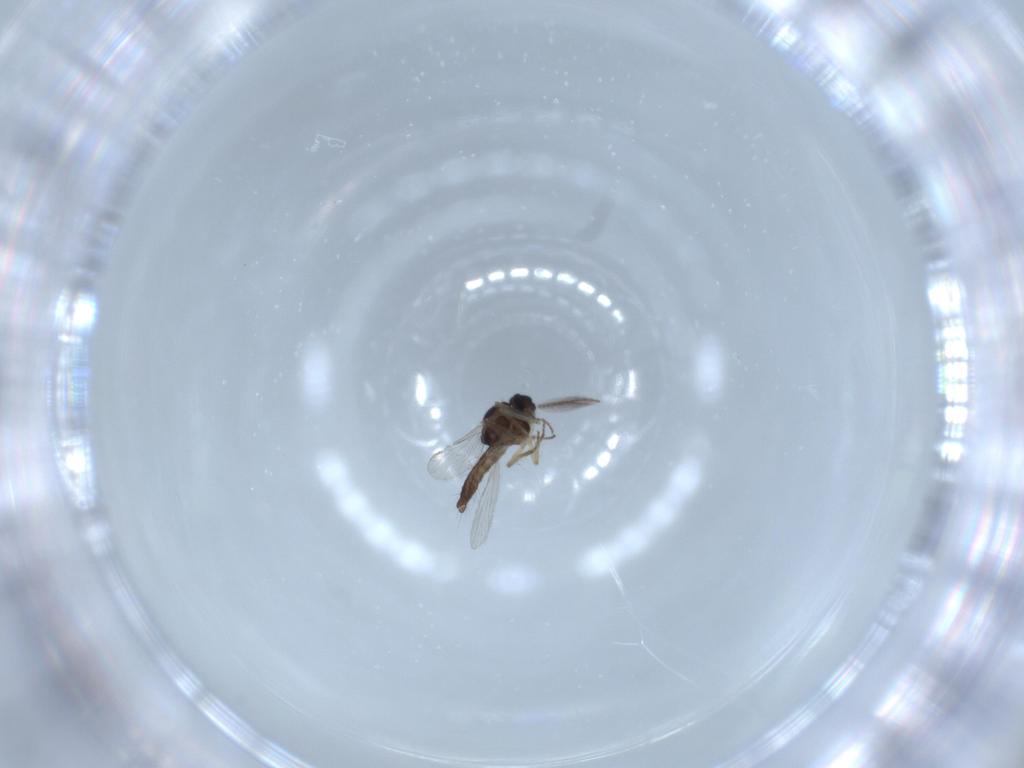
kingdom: Animalia
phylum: Arthropoda
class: Insecta
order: Diptera
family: Ceratopogonidae
